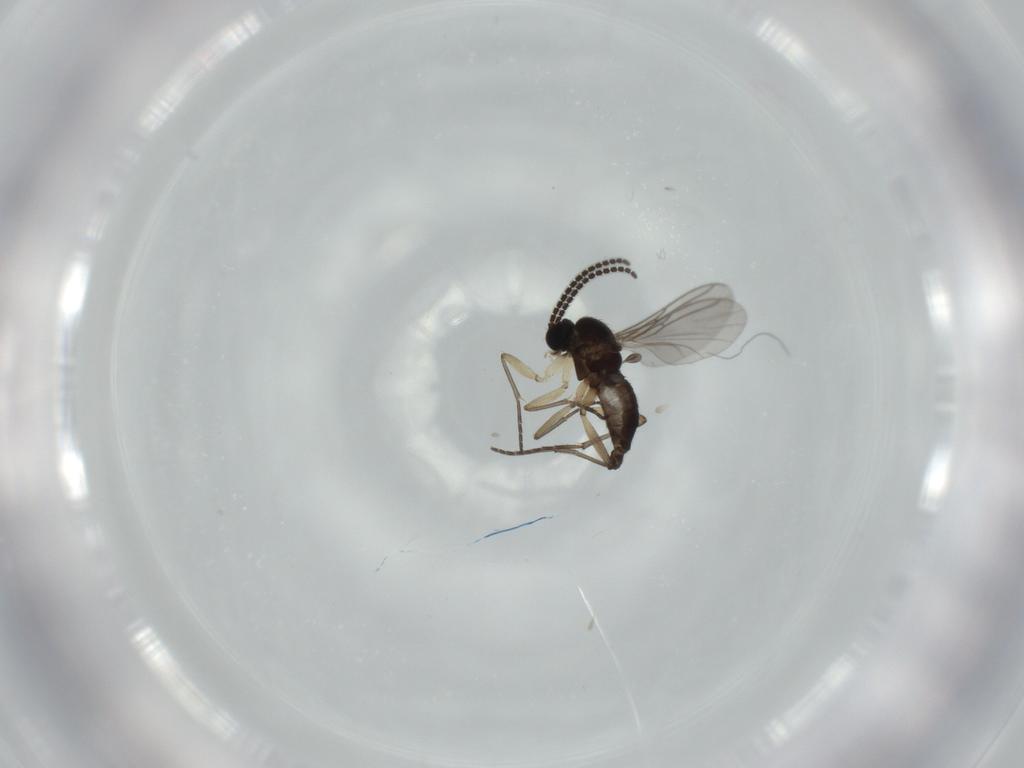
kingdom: Animalia
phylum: Arthropoda
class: Insecta
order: Diptera
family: Sciaridae
